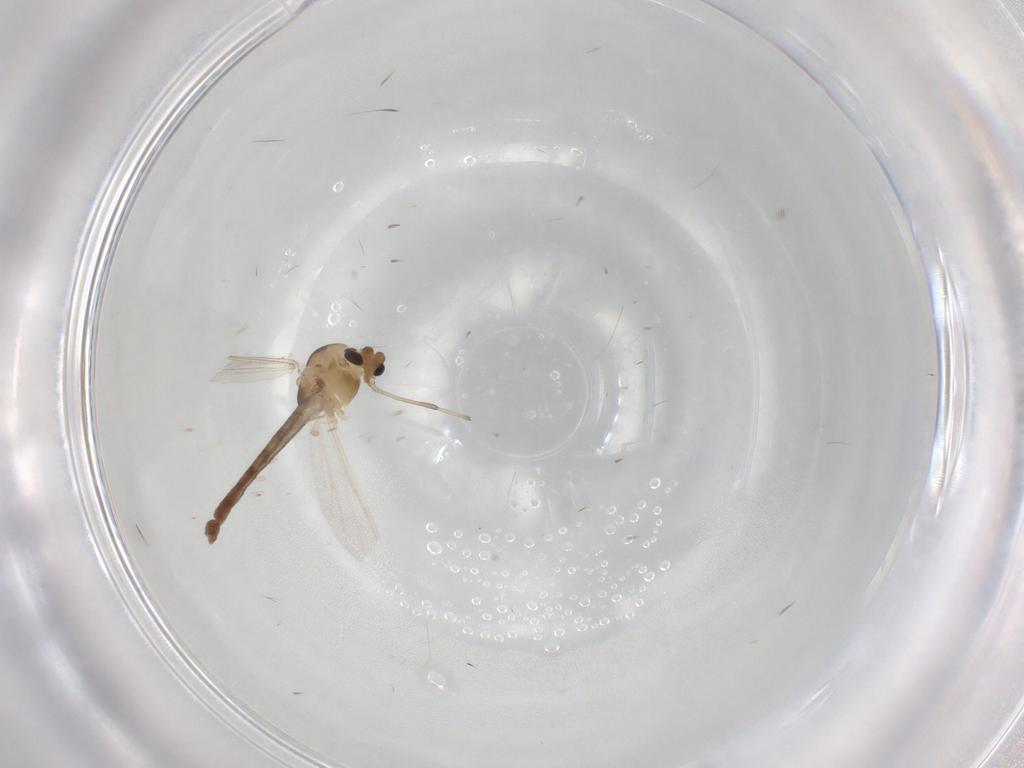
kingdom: Animalia
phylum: Arthropoda
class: Insecta
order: Diptera
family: Chironomidae
